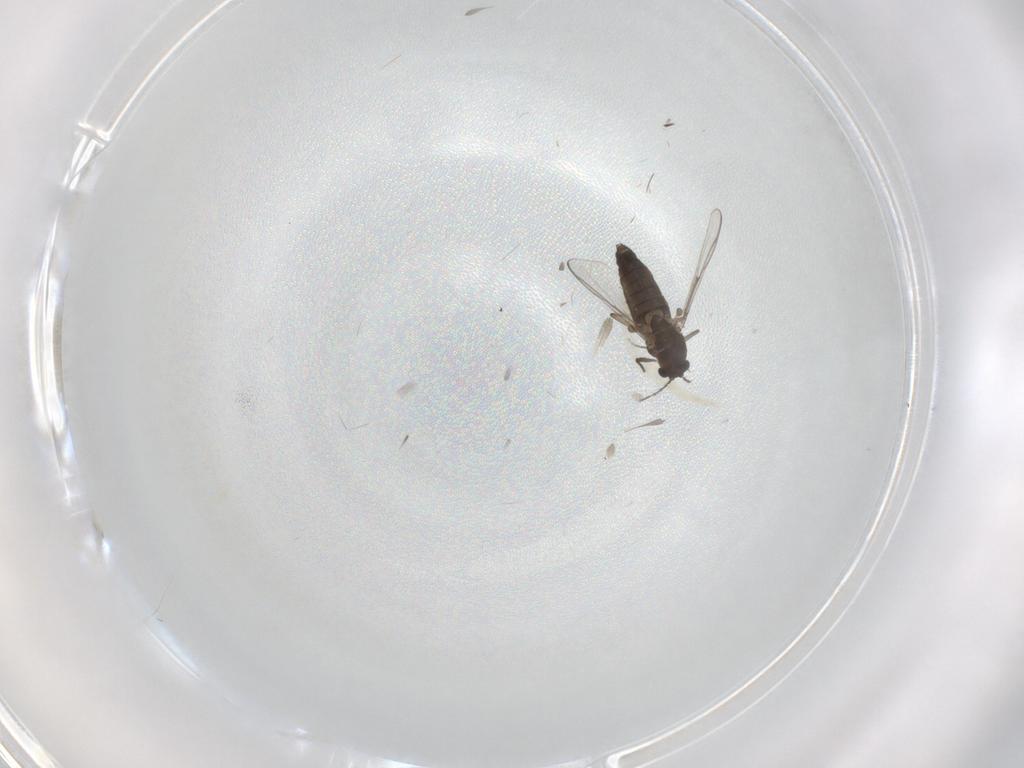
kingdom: Animalia
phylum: Arthropoda
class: Insecta
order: Diptera
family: Chironomidae
